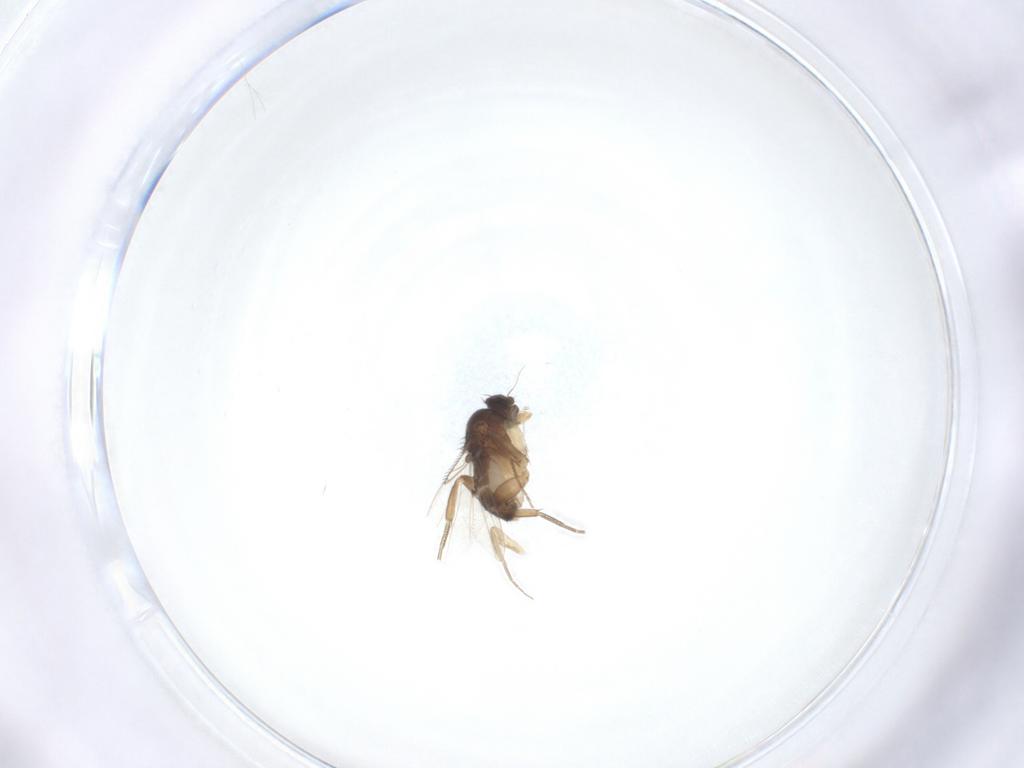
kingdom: Animalia
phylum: Arthropoda
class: Insecta
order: Diptera
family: Phoridae
